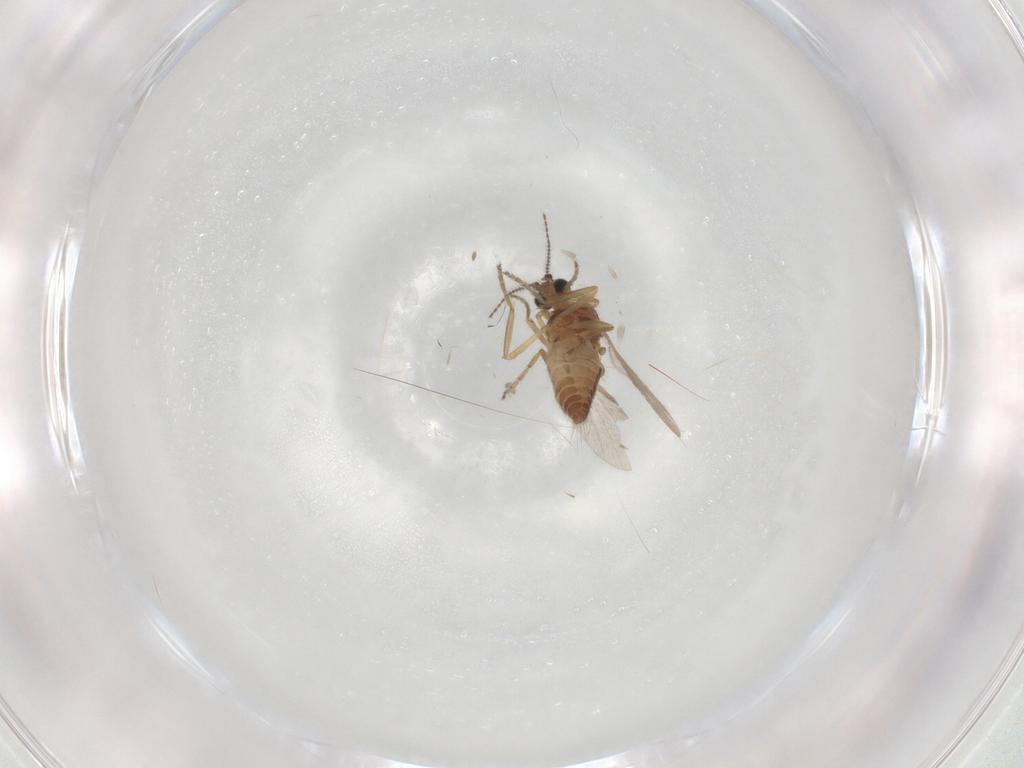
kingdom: Animalia
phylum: Arthropoda
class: Insecta
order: Diptera
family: Ceratopogonidae
